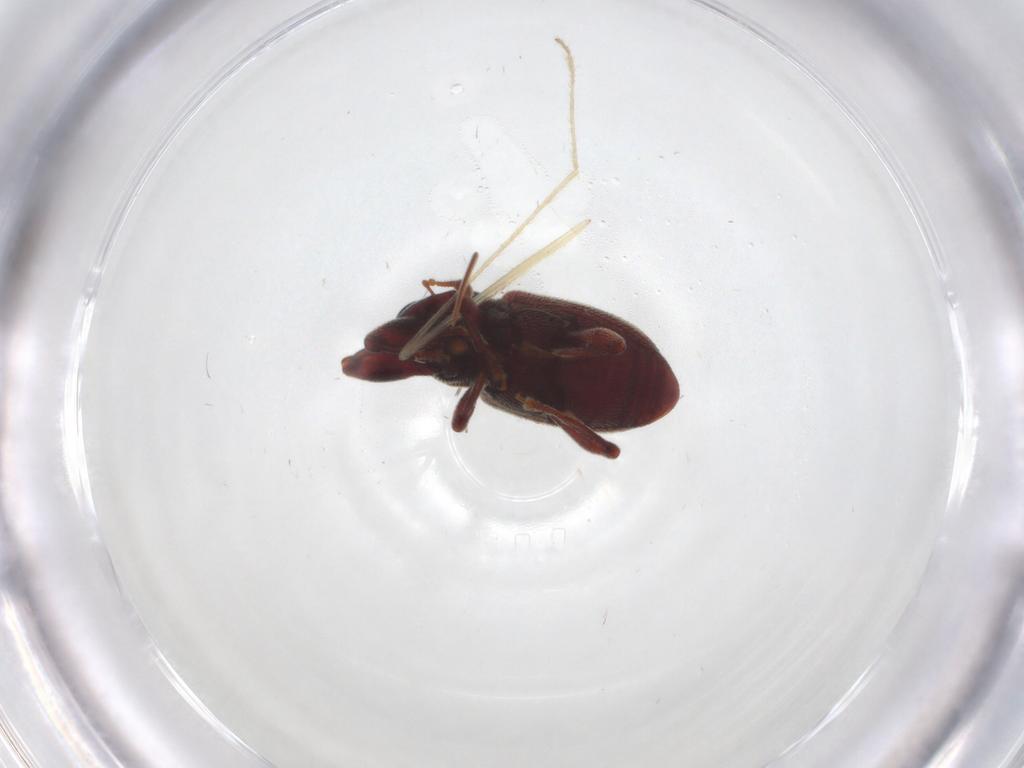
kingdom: Animalia
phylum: Arthropoda
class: Insecta
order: Coleoptera
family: Curculionidae
